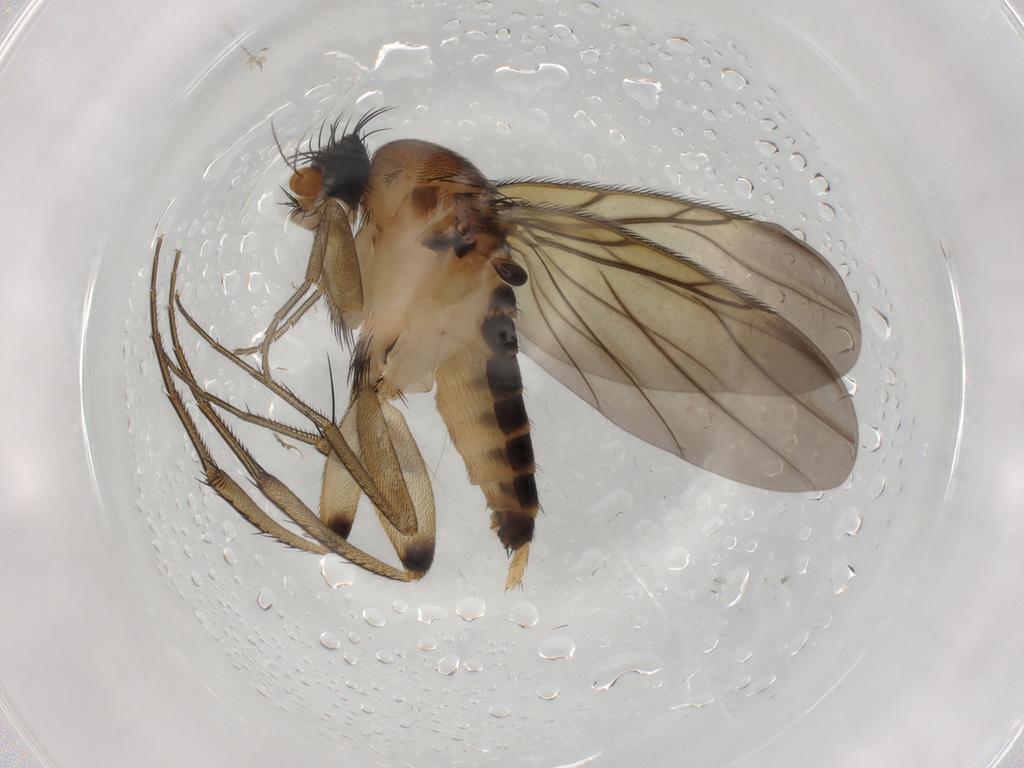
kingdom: Animalia
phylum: Arthropoda
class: Insecta
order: Diptera
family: Phoridae
